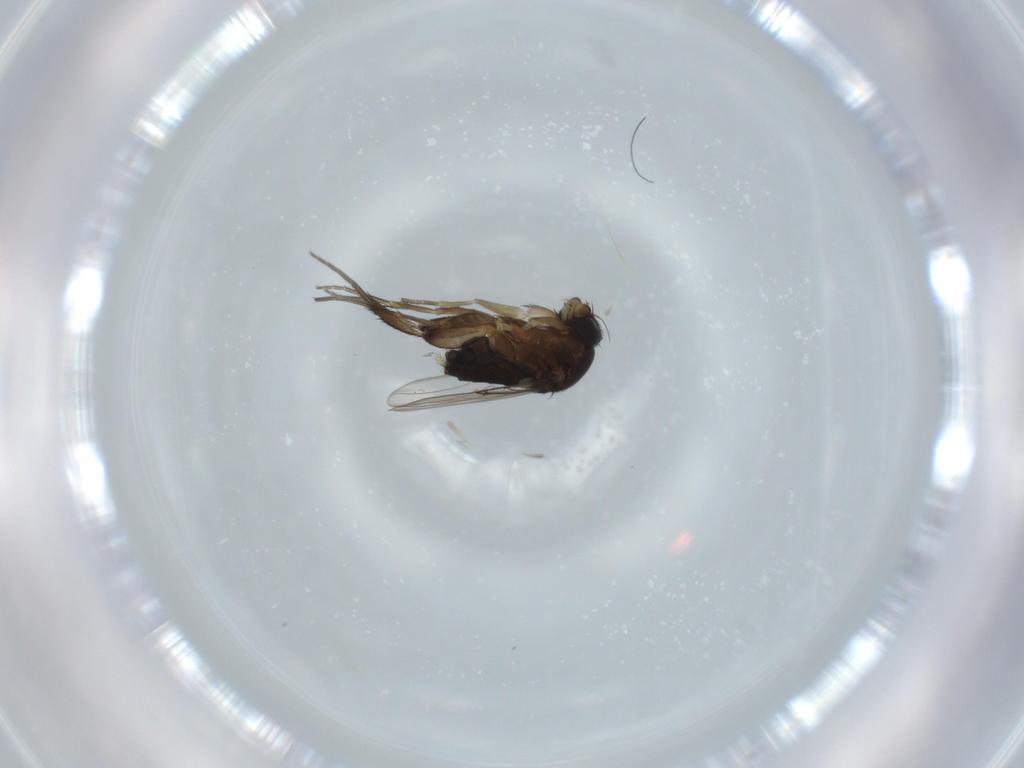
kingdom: Animalia
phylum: Arthropoda
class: Insecta
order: Diptera
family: Phoridae
